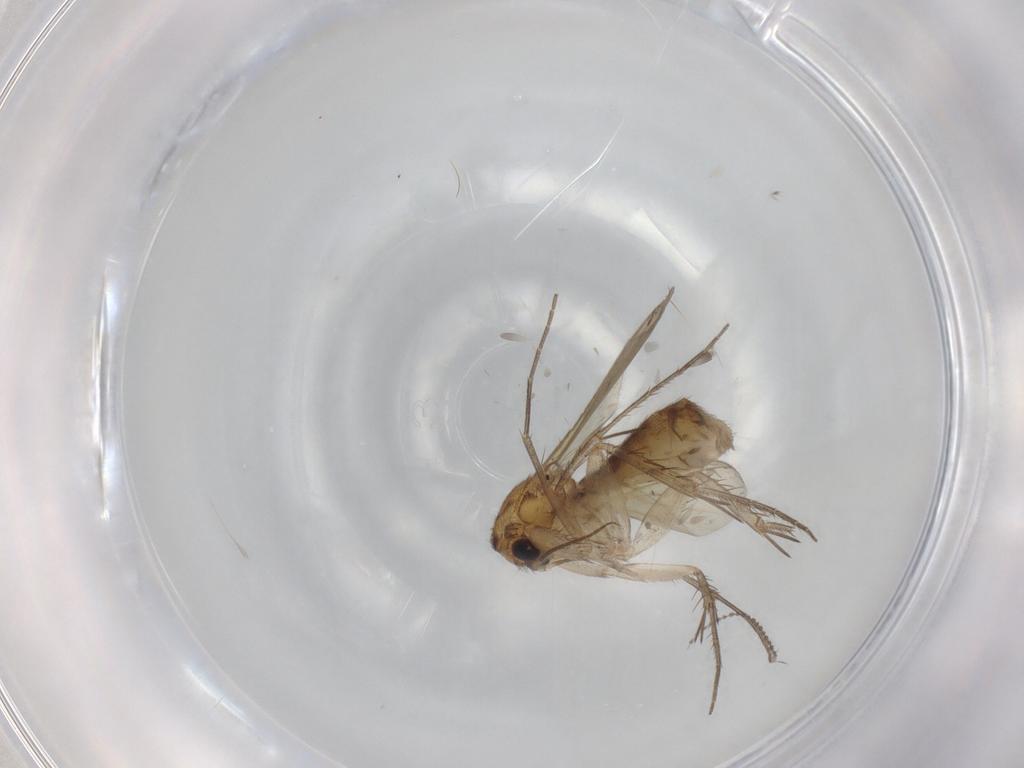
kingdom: Animalia
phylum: Arthropoda
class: Insecta
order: Diptera
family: Mycetophilidae
